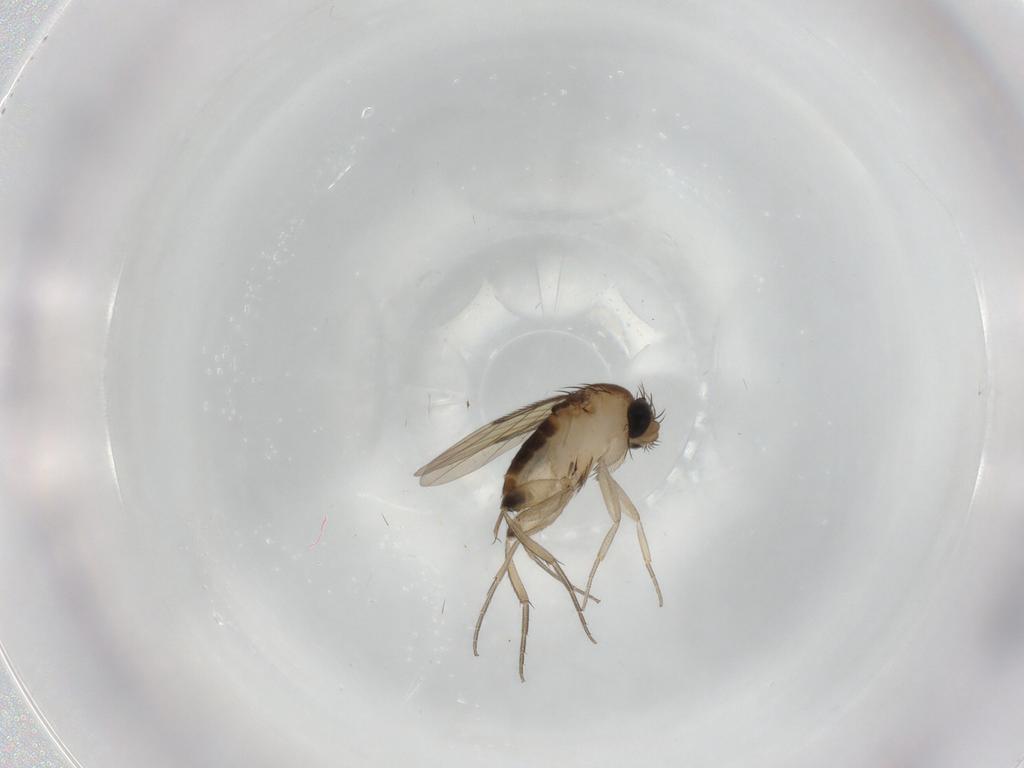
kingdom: Animalia
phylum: Arthropoda
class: Insecta
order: Diptera
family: Phoridae
